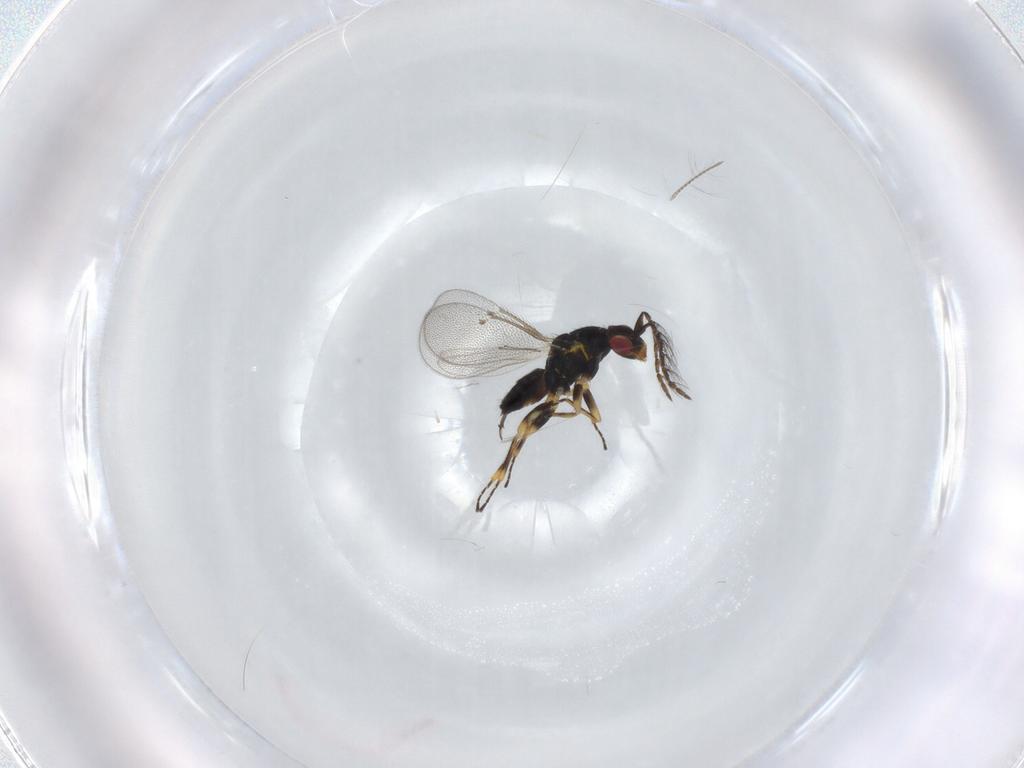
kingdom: Animalia
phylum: Arthropoda
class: Insecta
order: Hymenoptera
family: Eulophidae
